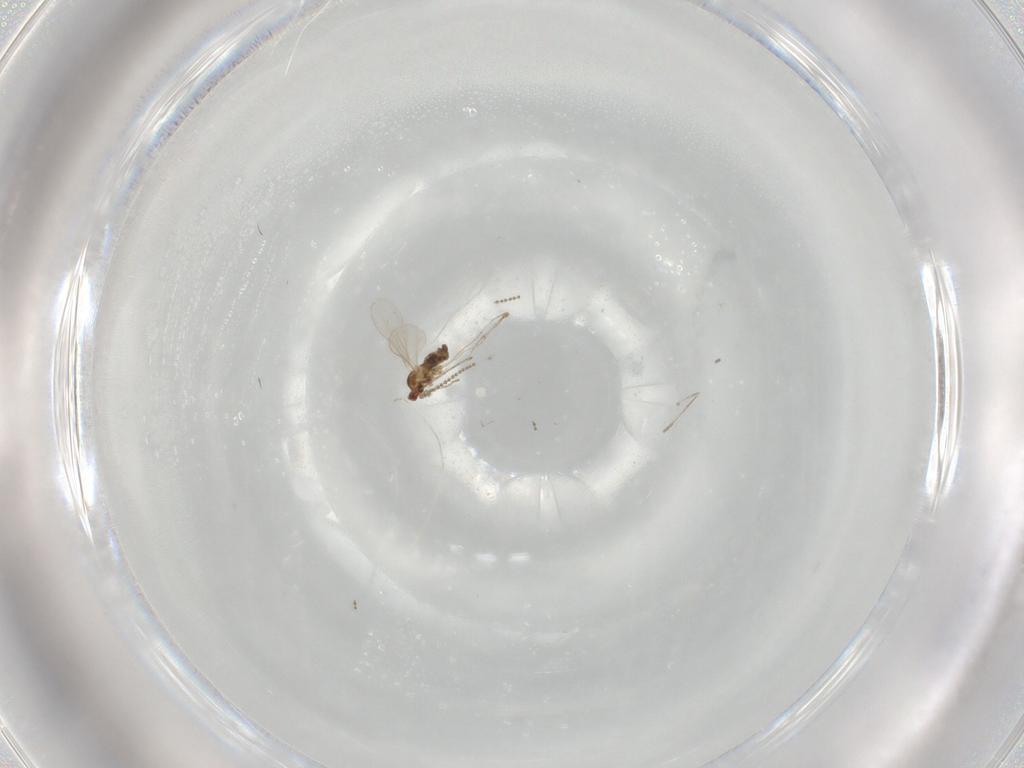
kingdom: Animalia
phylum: Arthropoda
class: Insecta
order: Diptera
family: Cecidomyiidae
